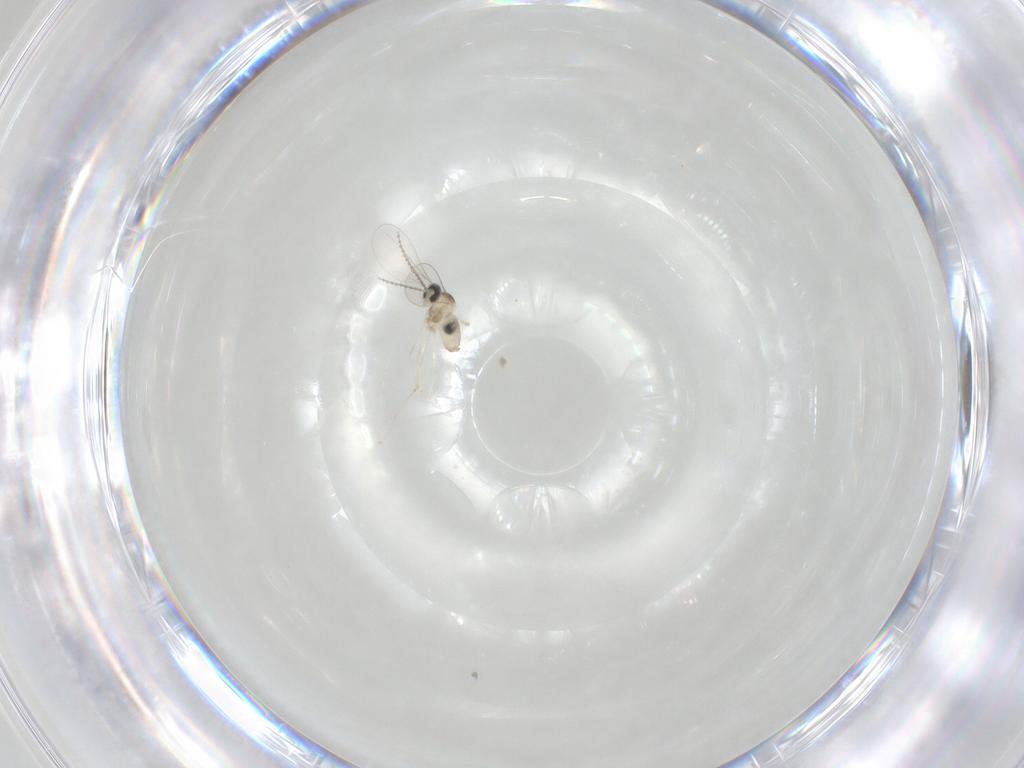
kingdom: Animalia
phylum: Arthropoda
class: Insecta
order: Diptera
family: Cecidomyiidae
